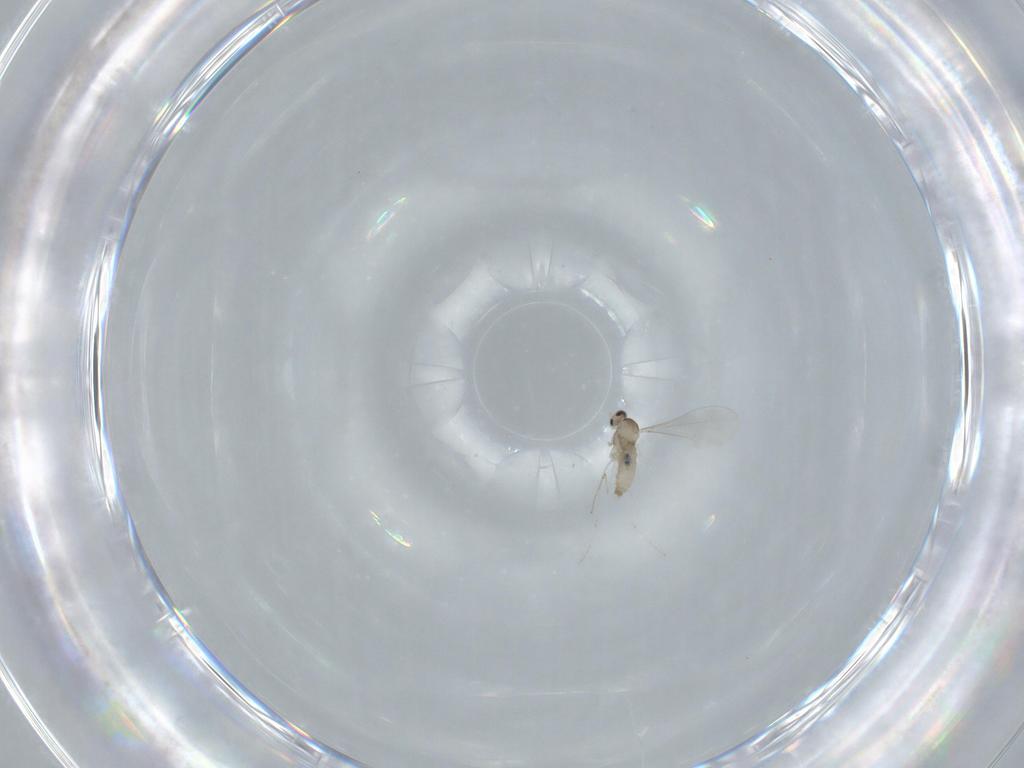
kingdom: Animalia
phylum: Arthropoda
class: Insecta
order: Diptera
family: Cecidomyiidae
